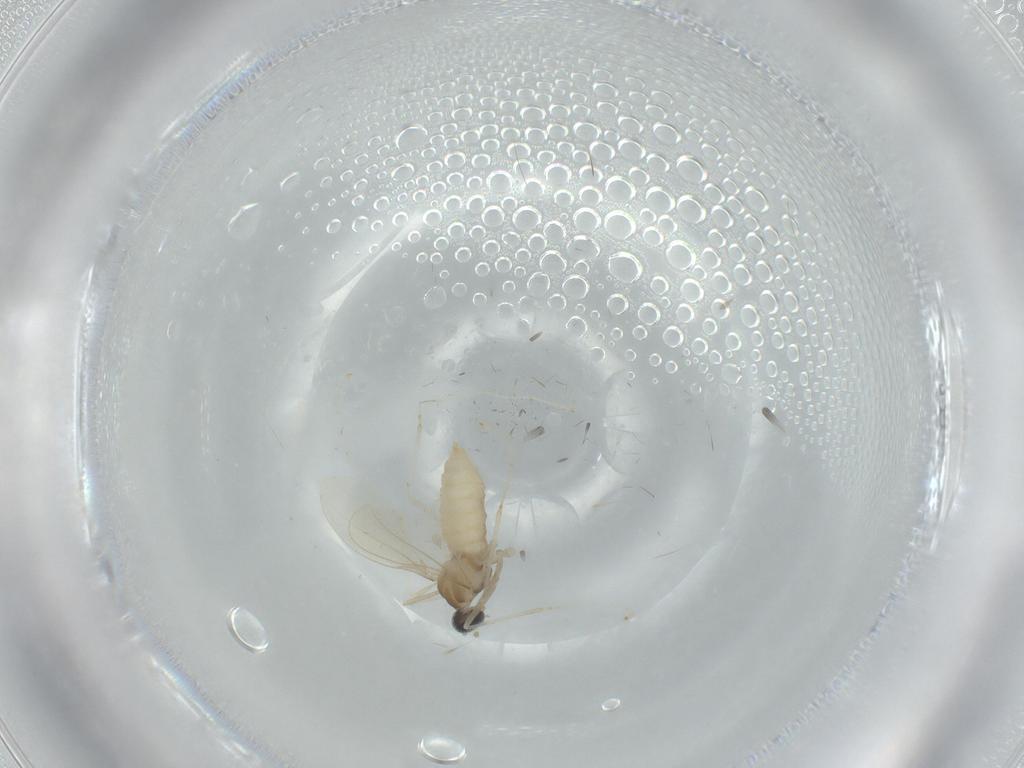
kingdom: Animalia
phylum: Arthropoda
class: Insecta
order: Diptera
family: Cecidomyiidae
